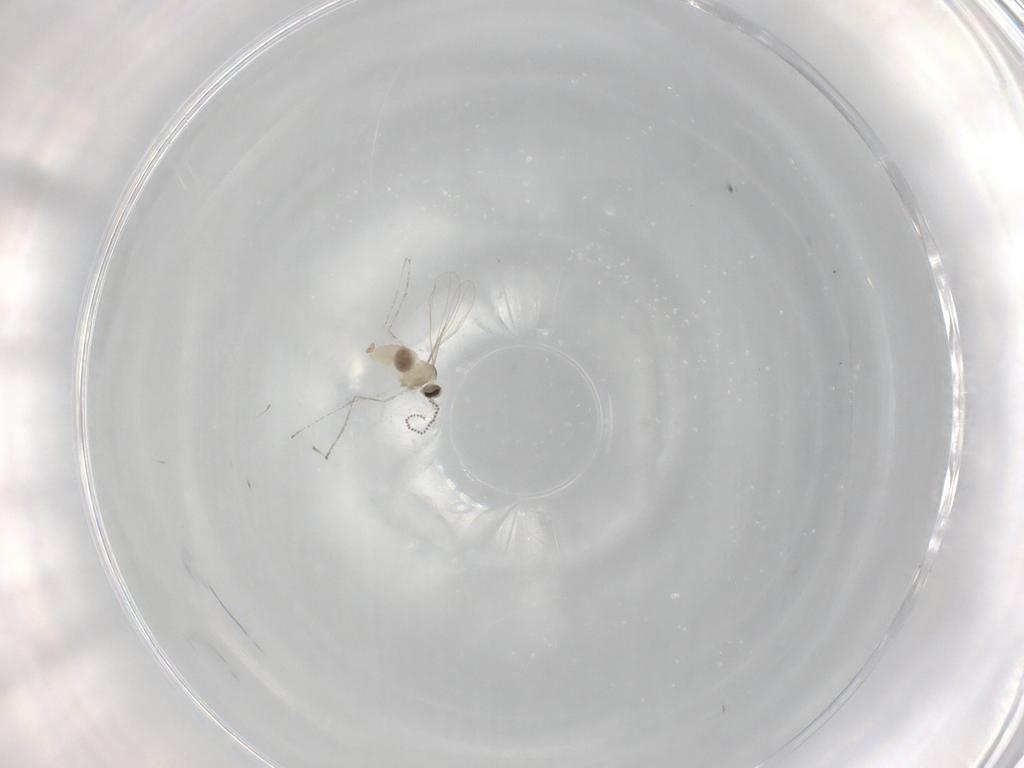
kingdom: Animalia
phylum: Arthropoda
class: Insecta
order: Diptera
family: Cecidomyiidae
